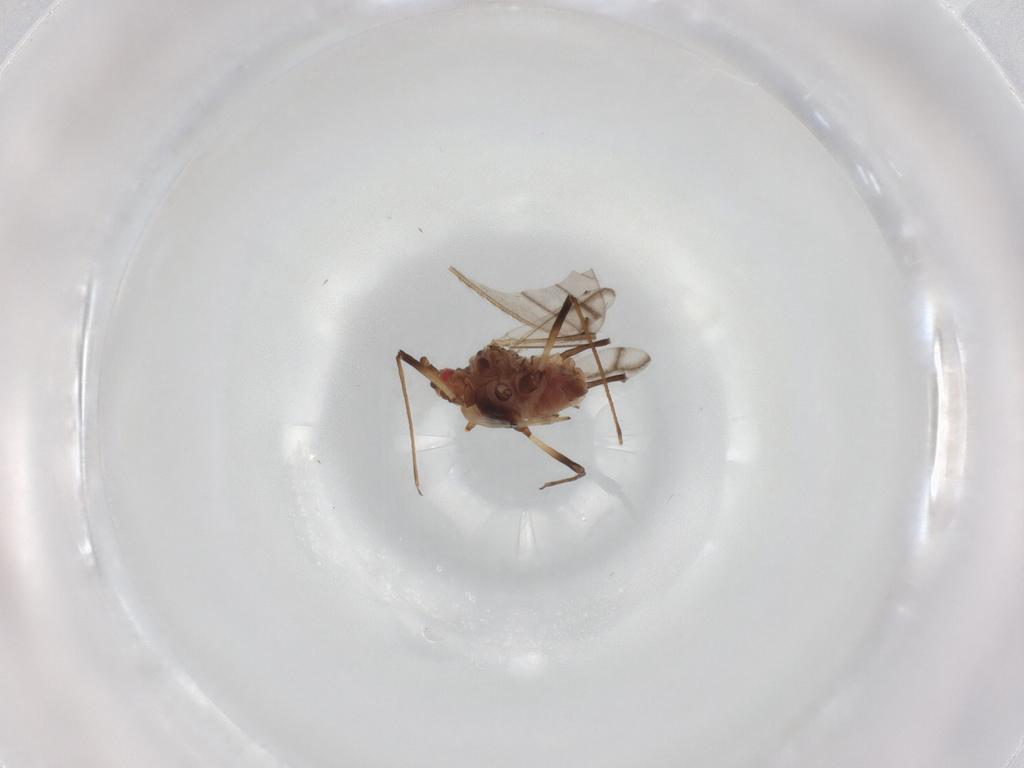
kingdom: Animalia
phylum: Arthropoda
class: Insecta
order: Hemiptera
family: Aphididae
